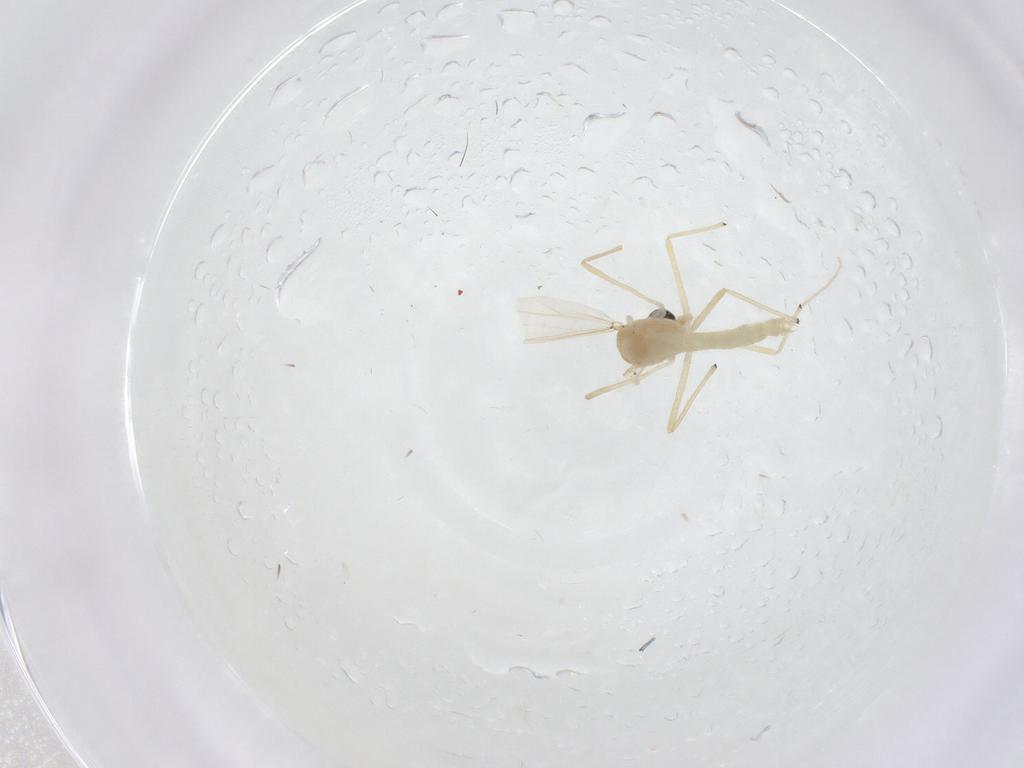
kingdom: Animalia
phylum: Arthropoda
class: Insecta
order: Diptera
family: Chironomidae
